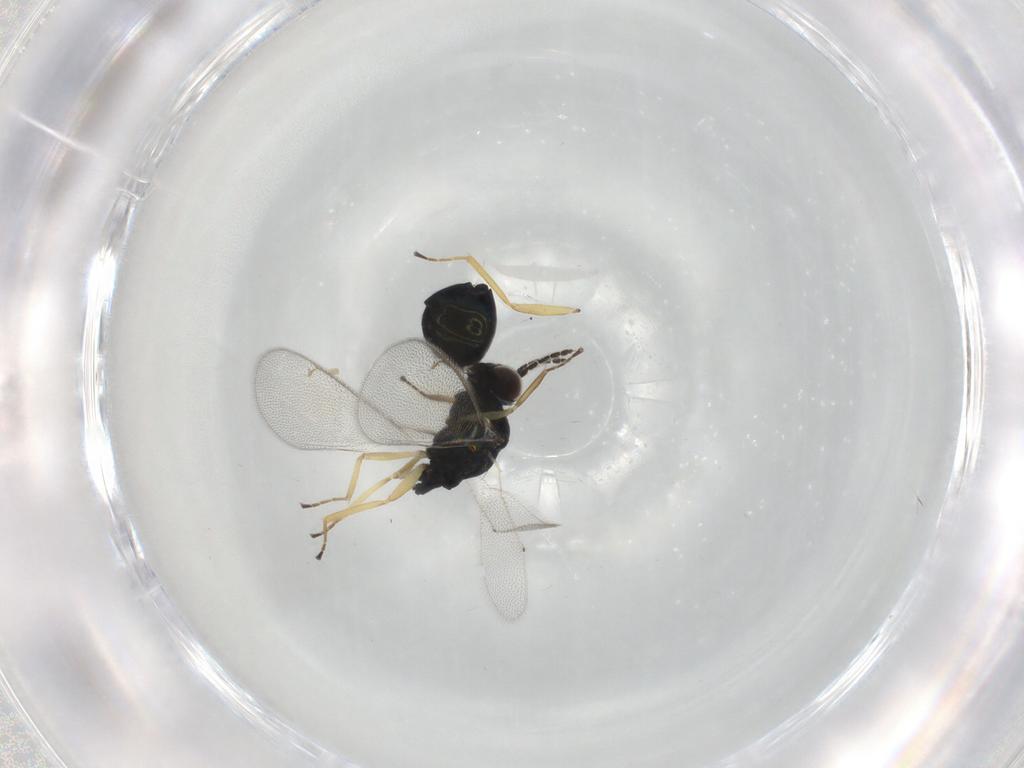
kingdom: Animalia
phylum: Arthropoda
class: Insecta
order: Hymenoptera
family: Eulophidae
